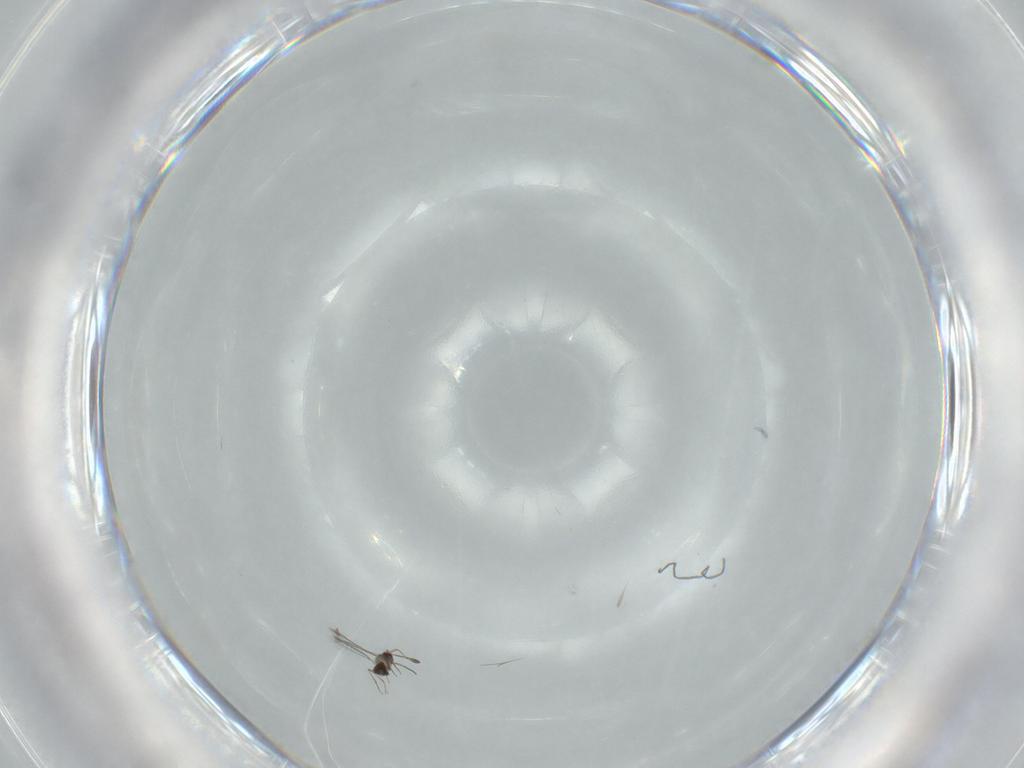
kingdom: Animalia
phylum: Arthropoda
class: Insecta
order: Hymenoptera
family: Mymaridae
